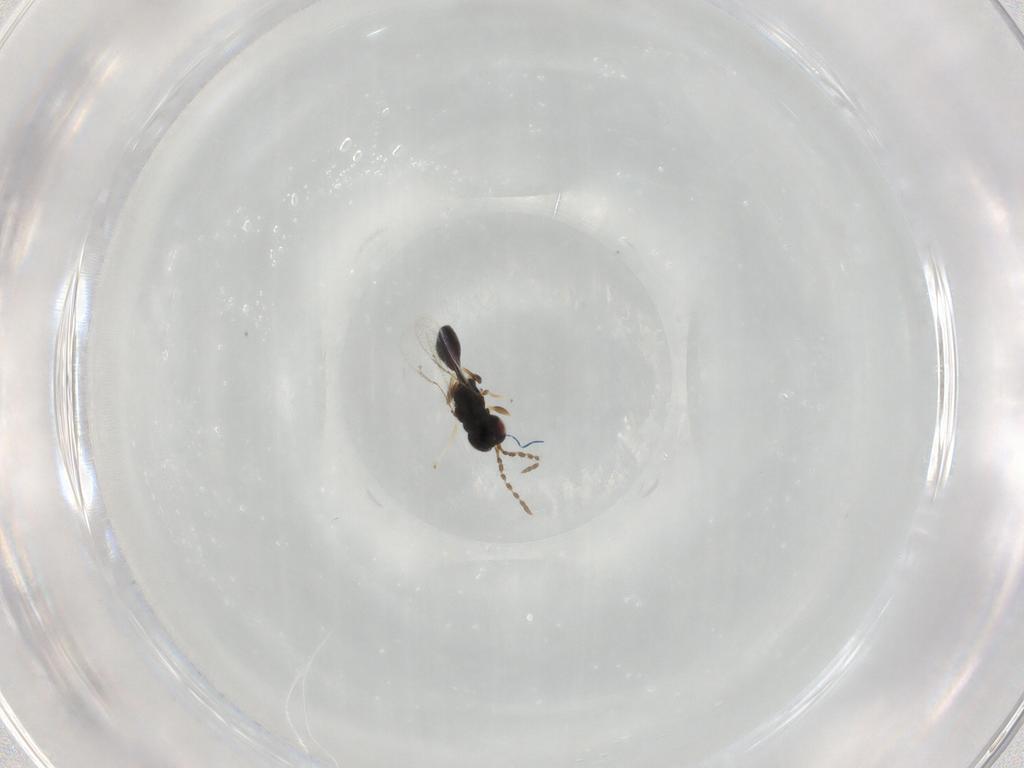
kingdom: Animalia
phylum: Arthropoda
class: Insecta
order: Hymenoptera
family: Eurytomidae
